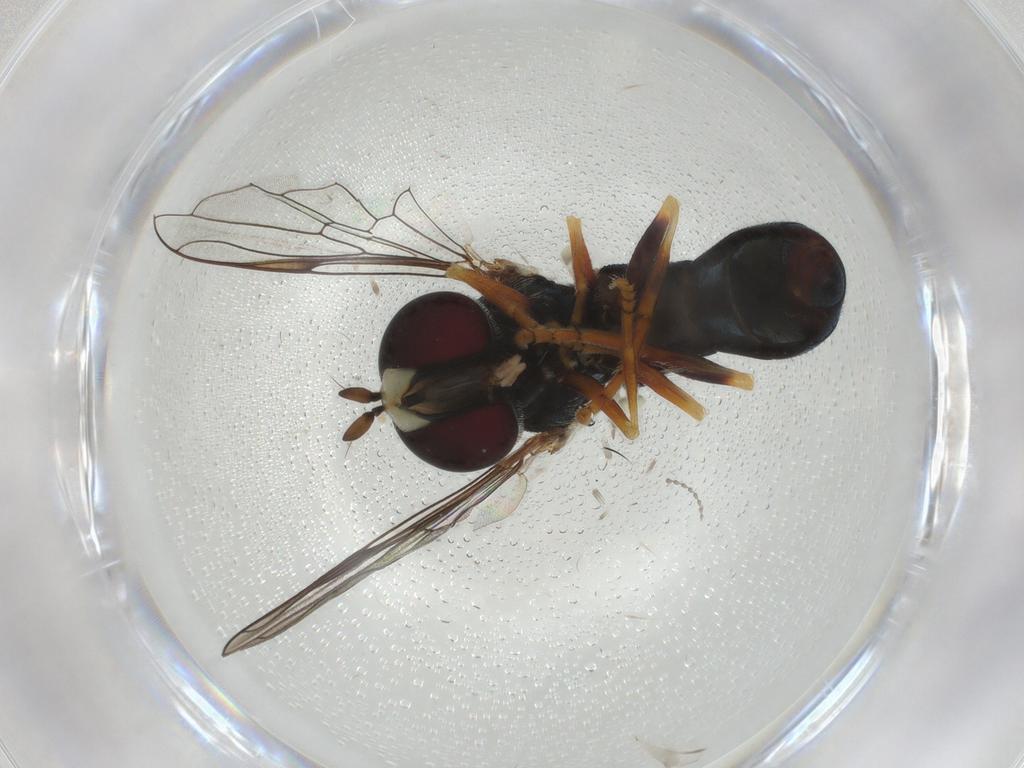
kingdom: Animalia
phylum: Arthropoda
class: Insecta
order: Diptera
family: Syrphidae
